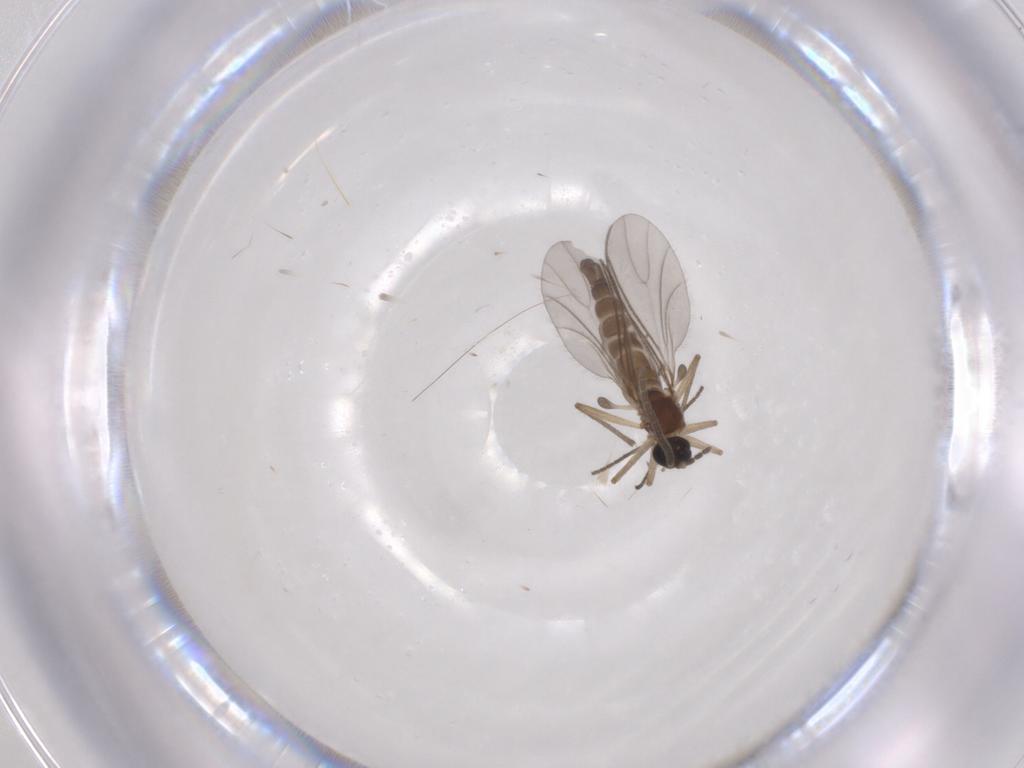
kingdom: Animalia
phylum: Arthropoda
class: Insecta
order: Diptera
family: Sciaridae
